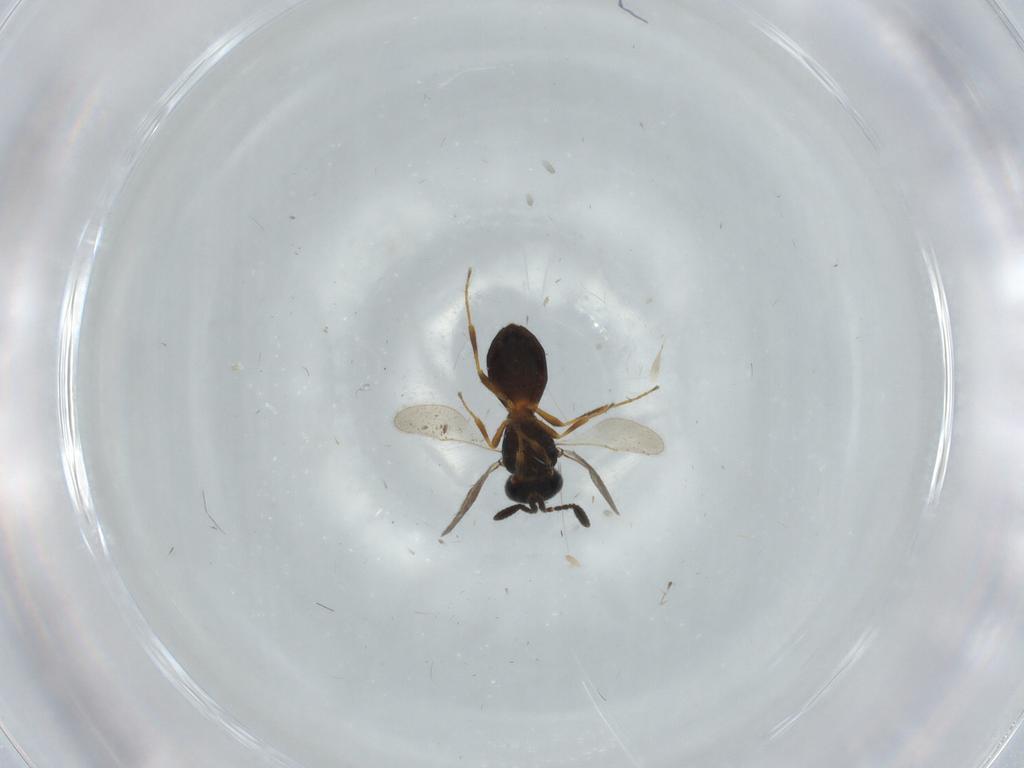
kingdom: Animalia
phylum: Arthropoda
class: Insecta
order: Hymenoptera
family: Scelionidae
